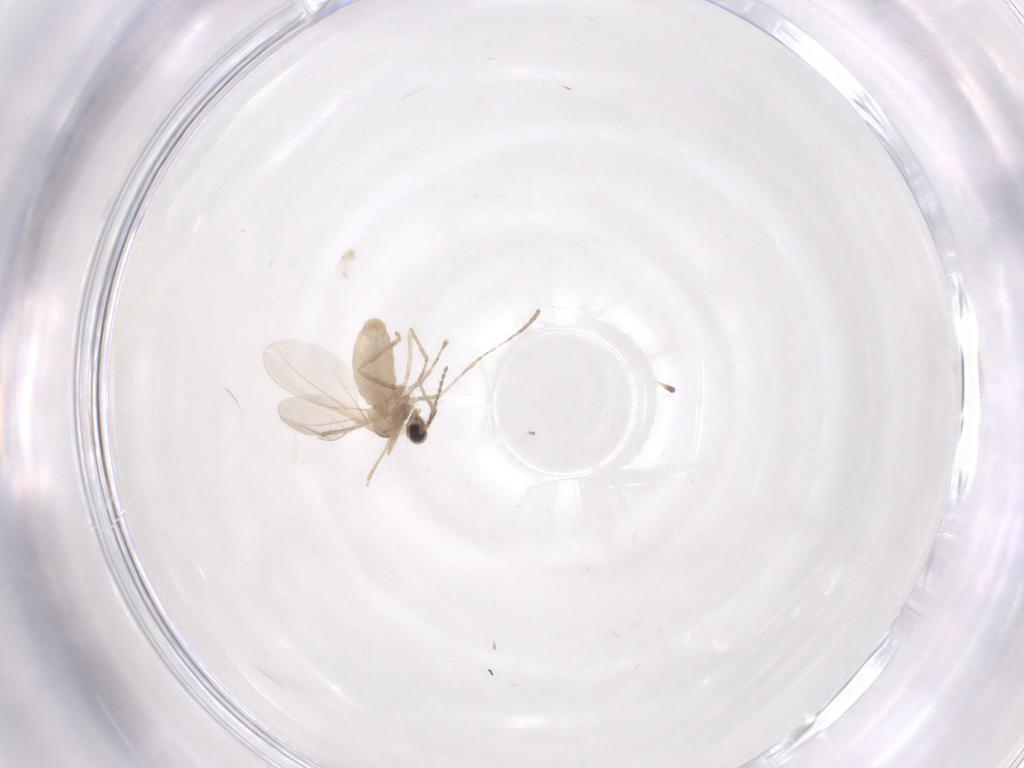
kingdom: Animalia
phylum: Arthropoda
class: Insecta
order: Diptera
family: Cecidomyiidae
